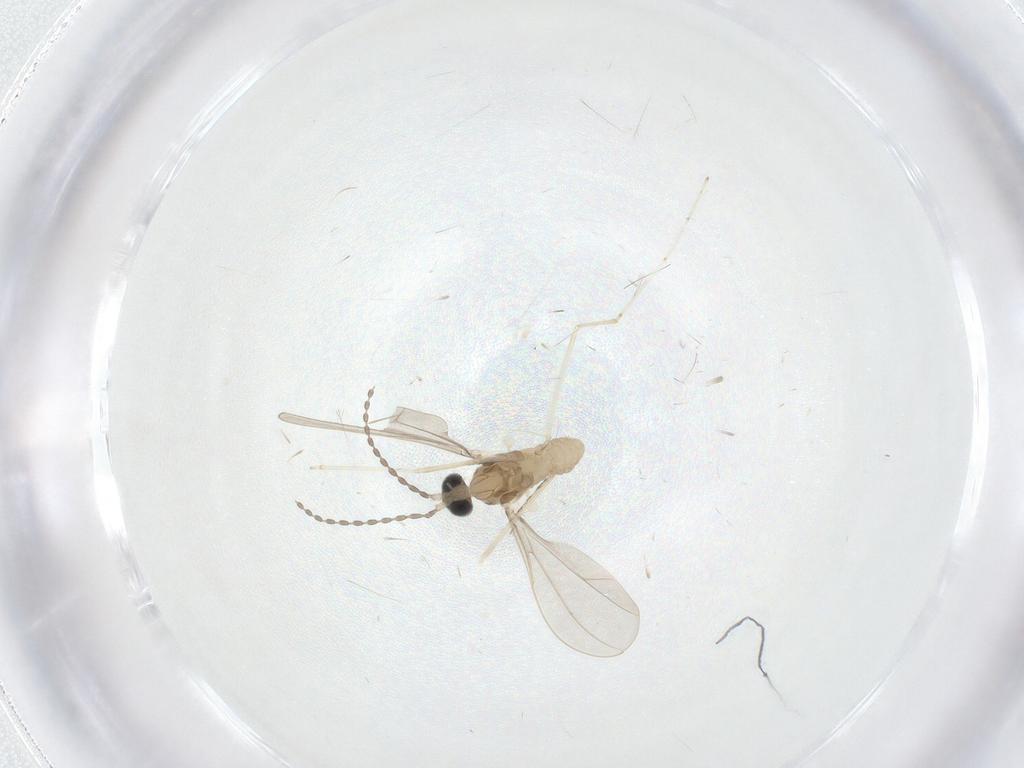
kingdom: Animalia
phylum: Arthropoda
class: Insecta
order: Diptera
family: Cecidomyiidae
